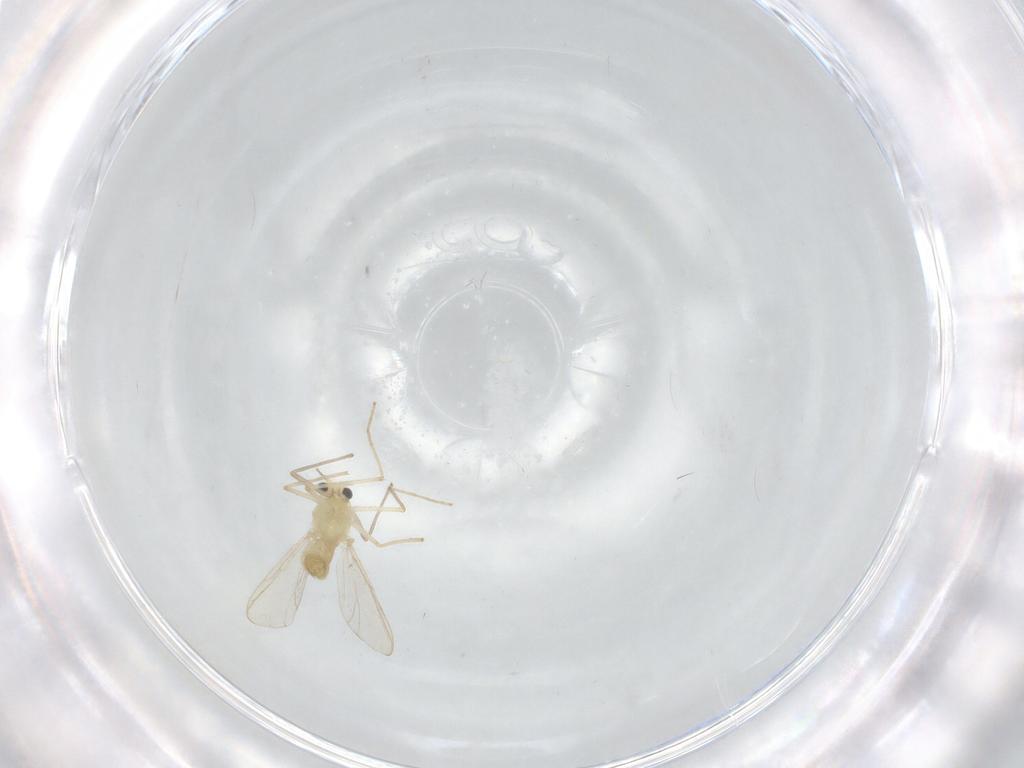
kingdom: Animalia
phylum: Arthropoda
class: Insecta
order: Diptera
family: Chironomidae
